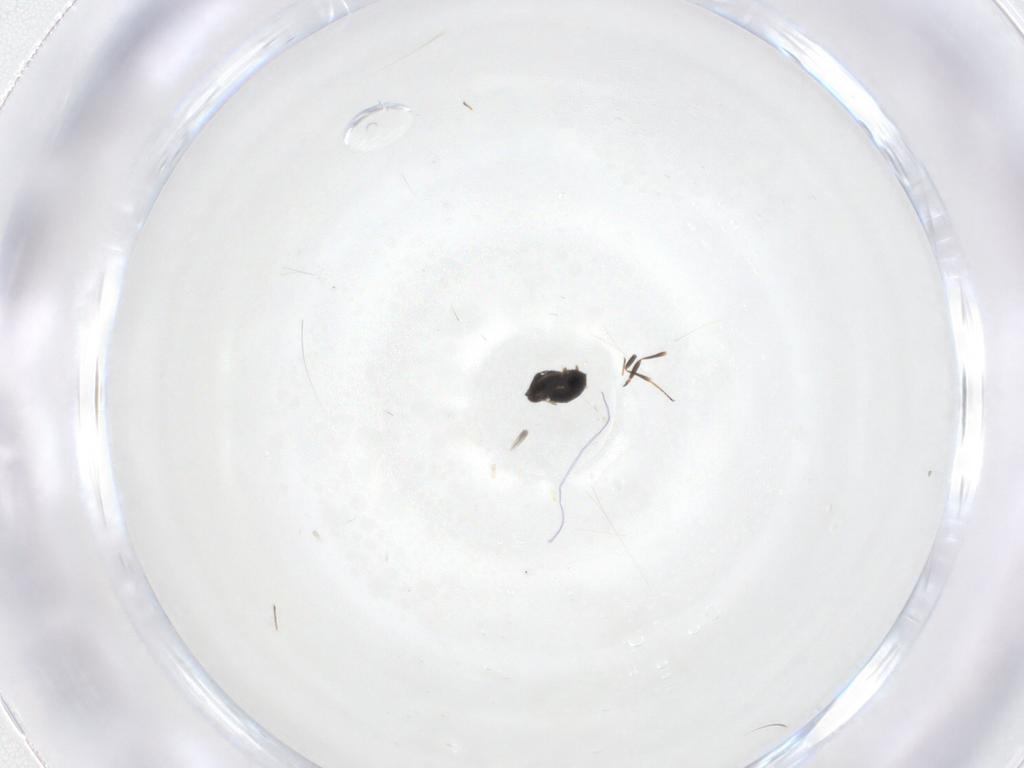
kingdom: Animalia
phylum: Arthropoda
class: Insecta
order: Hymenoptera
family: Scelionidae
